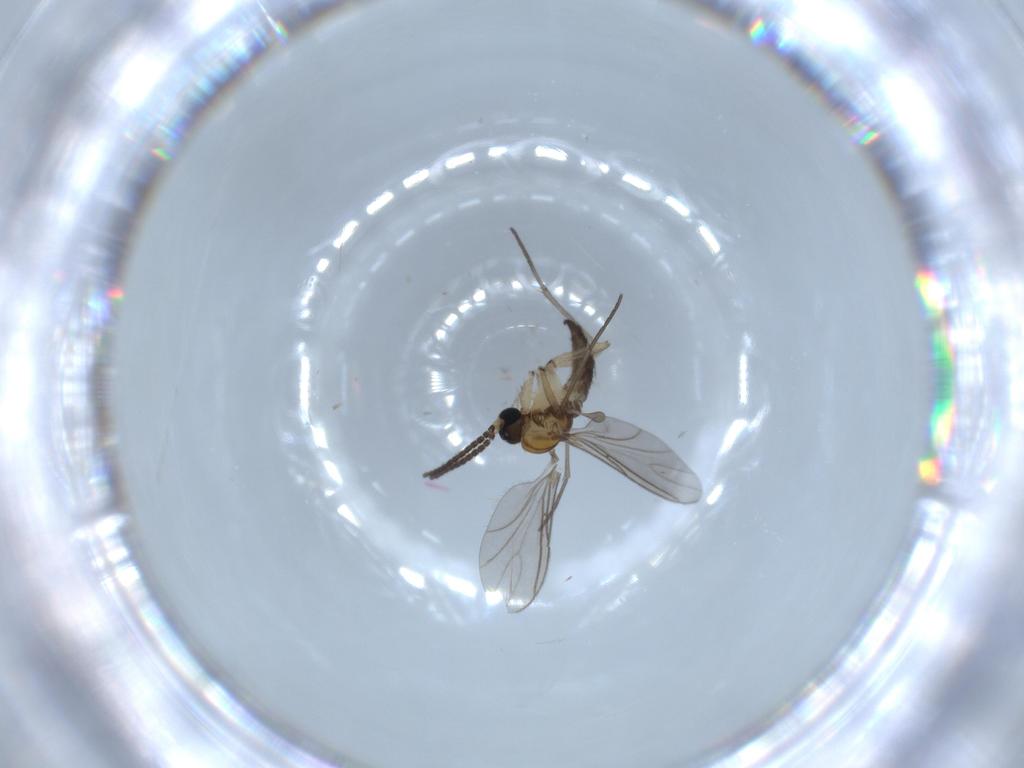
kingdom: Animalia
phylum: Arthropoda
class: Insecta
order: Diptera
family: Sciaridae
